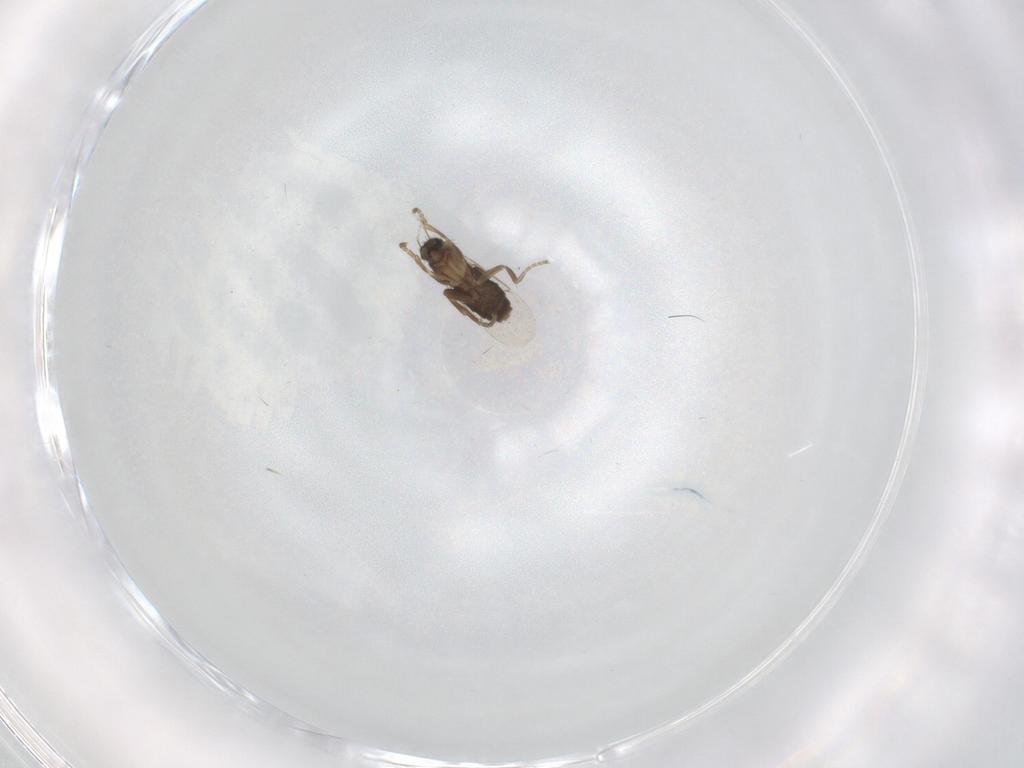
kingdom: Animalia
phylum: Arthropoda
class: Insecta
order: Diptera
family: Phoridae
